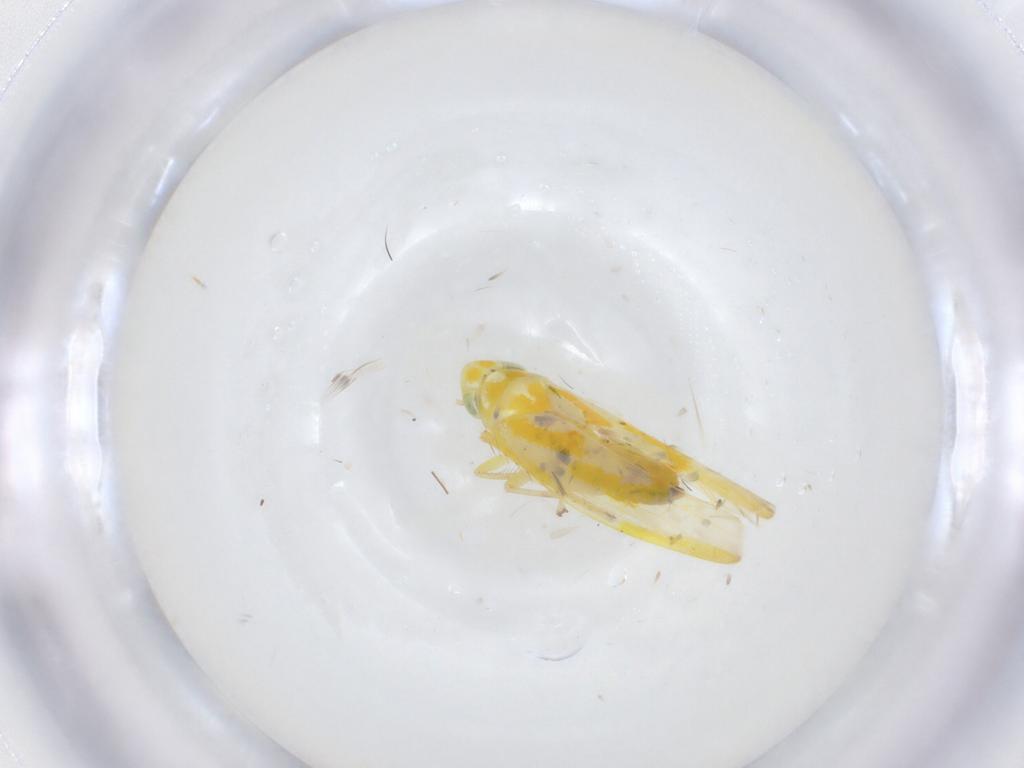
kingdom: Animalia
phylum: Arthropoda
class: Insecta
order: Hemiptera
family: Cicadellidae
